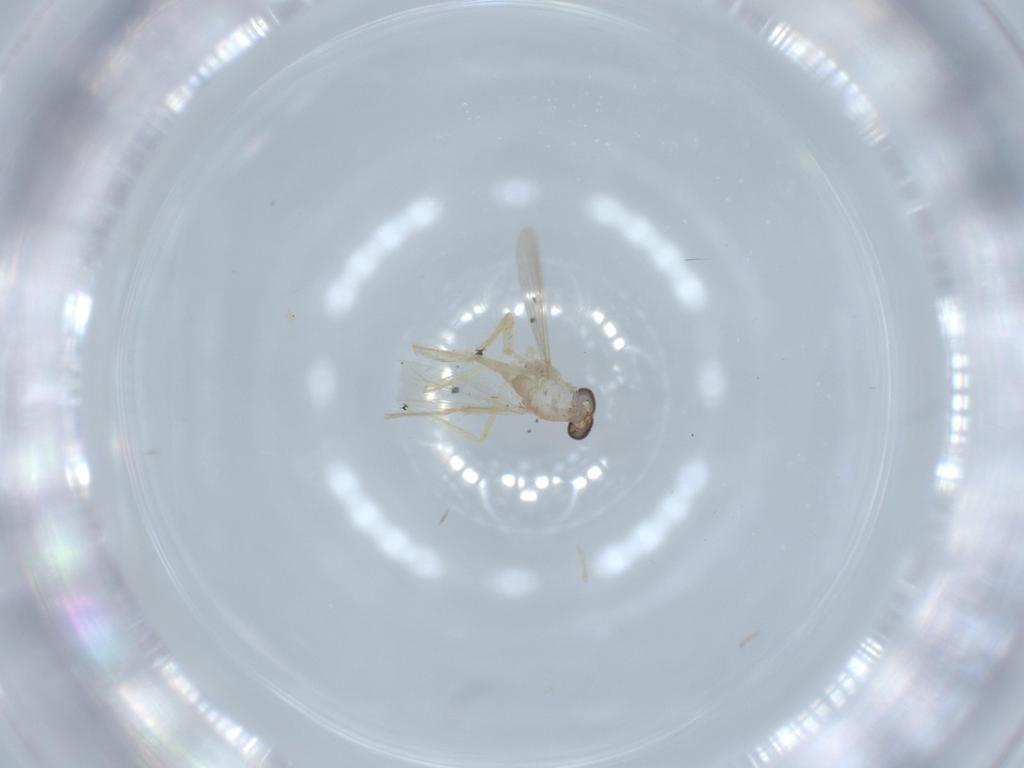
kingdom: Animalia
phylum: Arthropoda
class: Insecta
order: Diptera
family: Chironomidae
